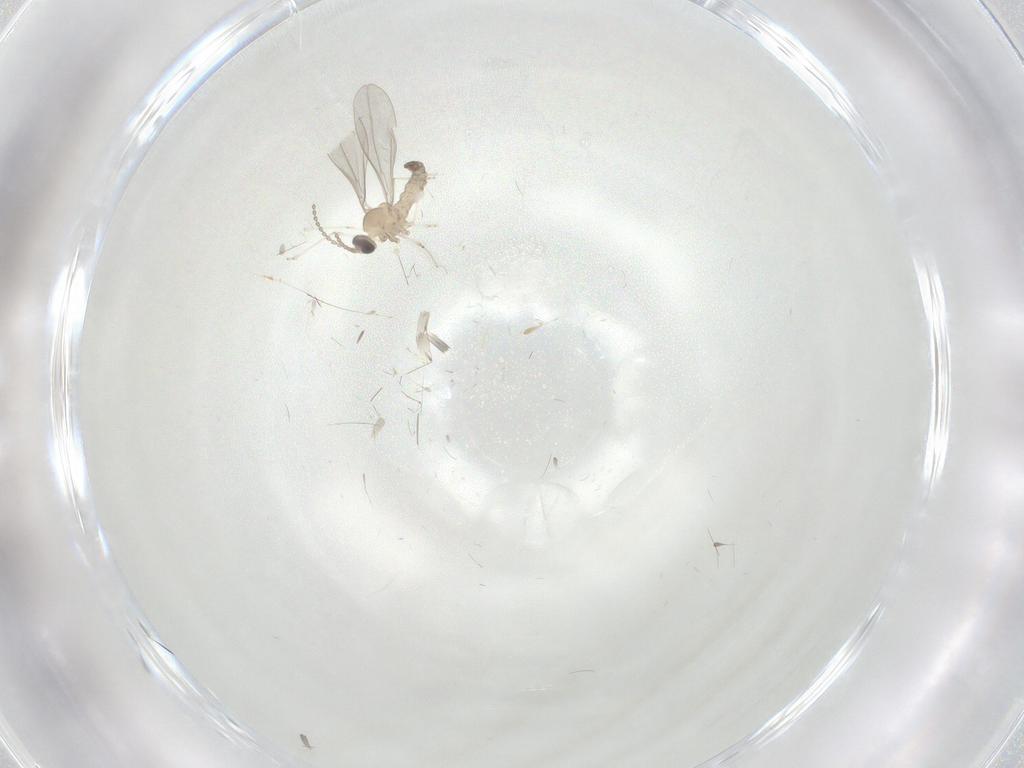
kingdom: Animalia
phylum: Arthropoda
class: Insecta
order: Diptera
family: Cecidomyiidae
